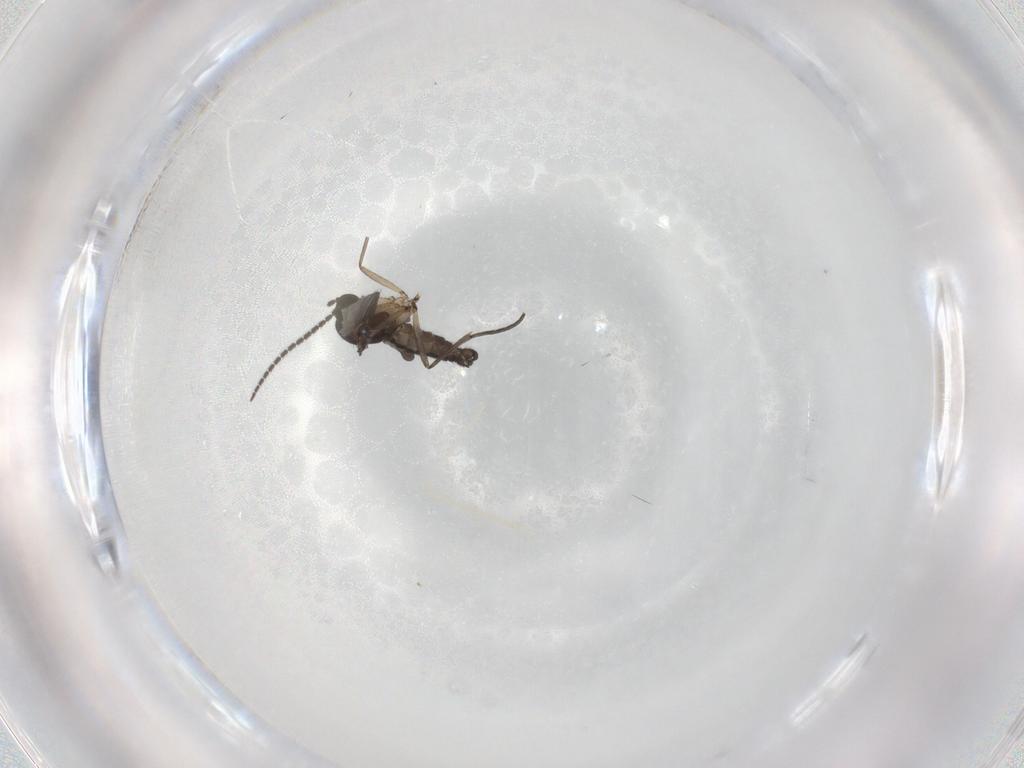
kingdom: Animalia
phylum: Arthropoda
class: Insecta
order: Diptera
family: Sciaridae
